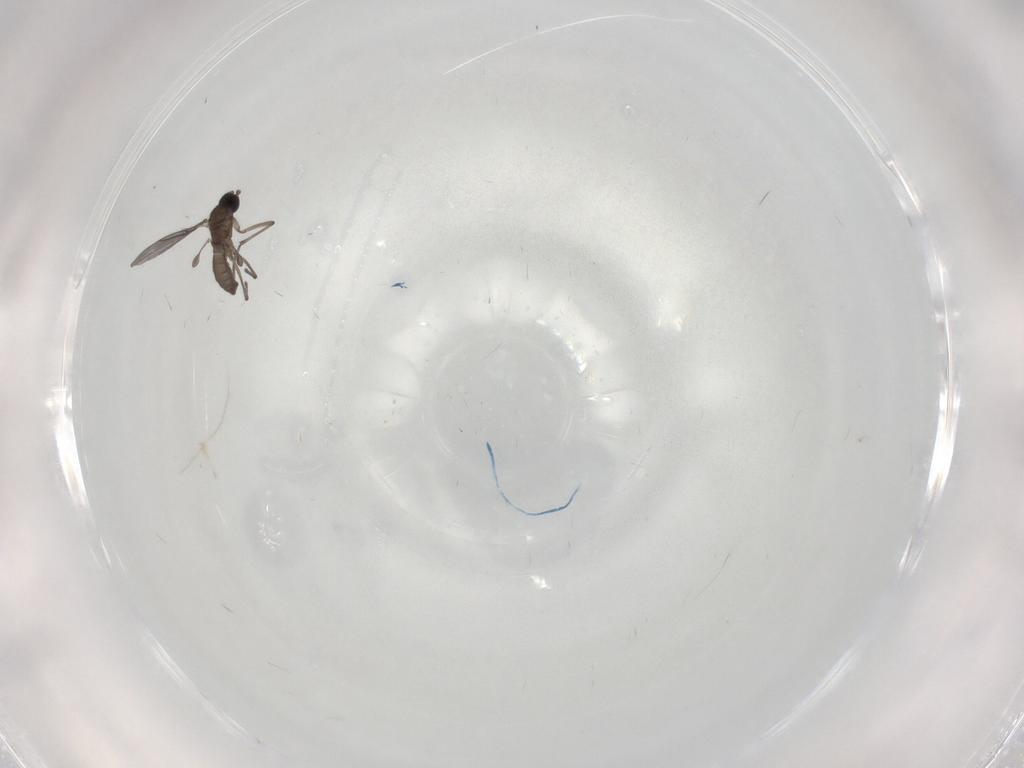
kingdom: Animalia
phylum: Arthropoda
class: Insecta
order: Diptera
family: Sciaridae
